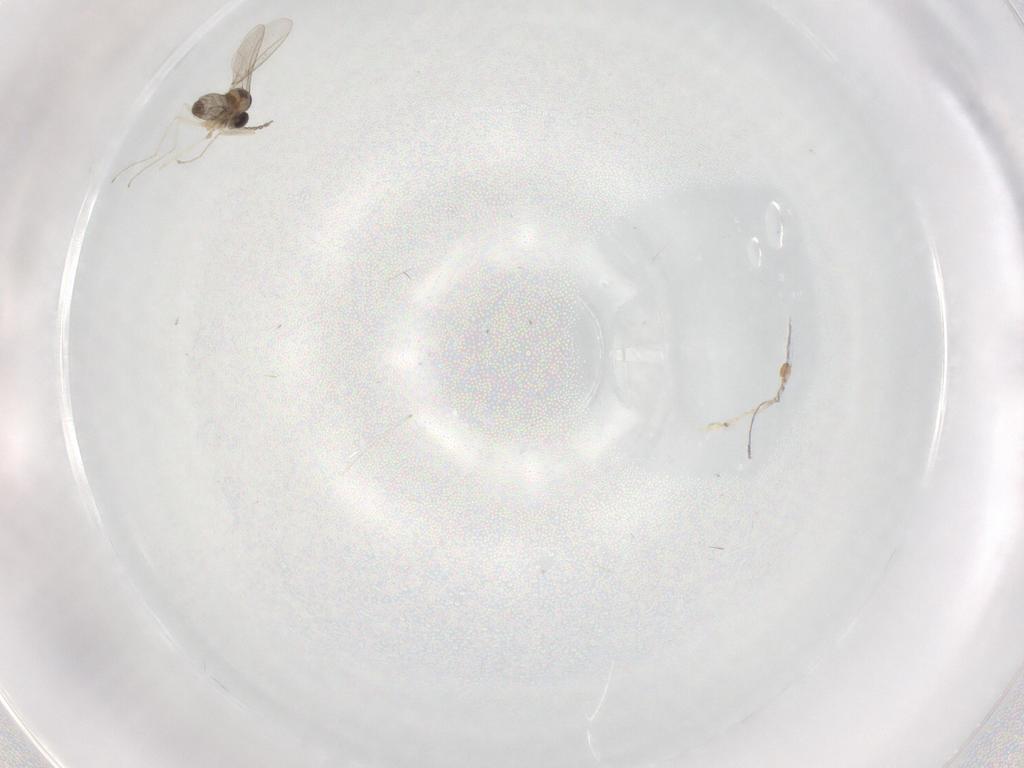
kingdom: Animalia
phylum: Arthropoda
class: Insecta
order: Diptera
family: Cecidomyiidae
